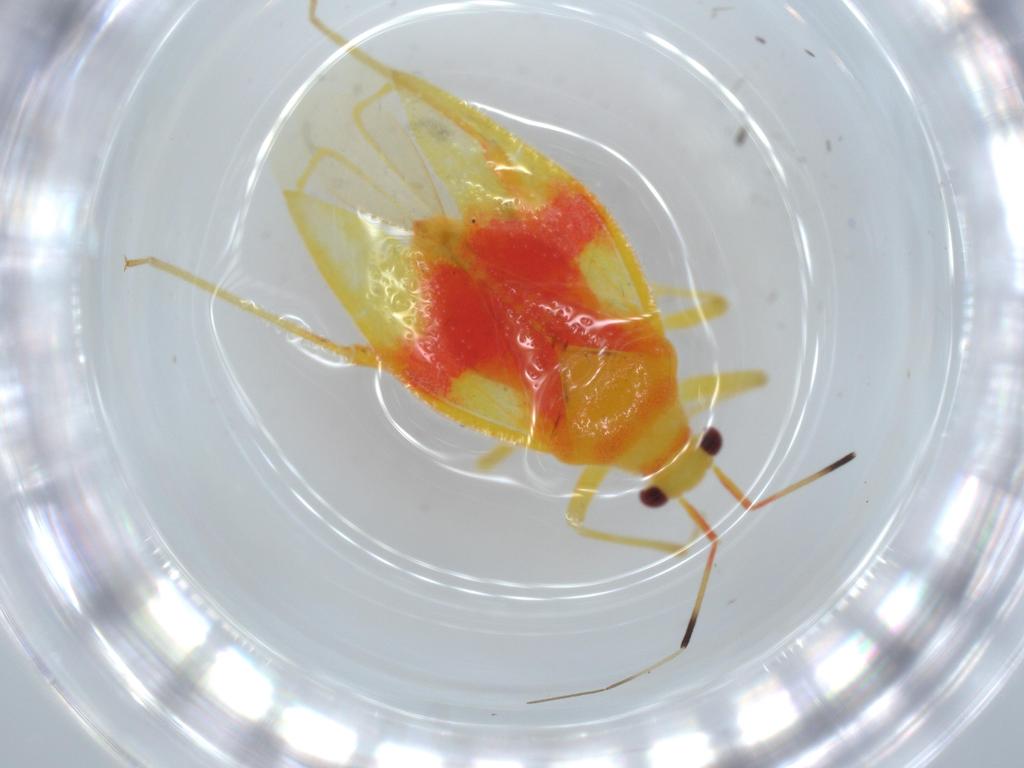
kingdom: Animalia
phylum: Arthropoda
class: Insecta
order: Hemiptera
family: Miridae
